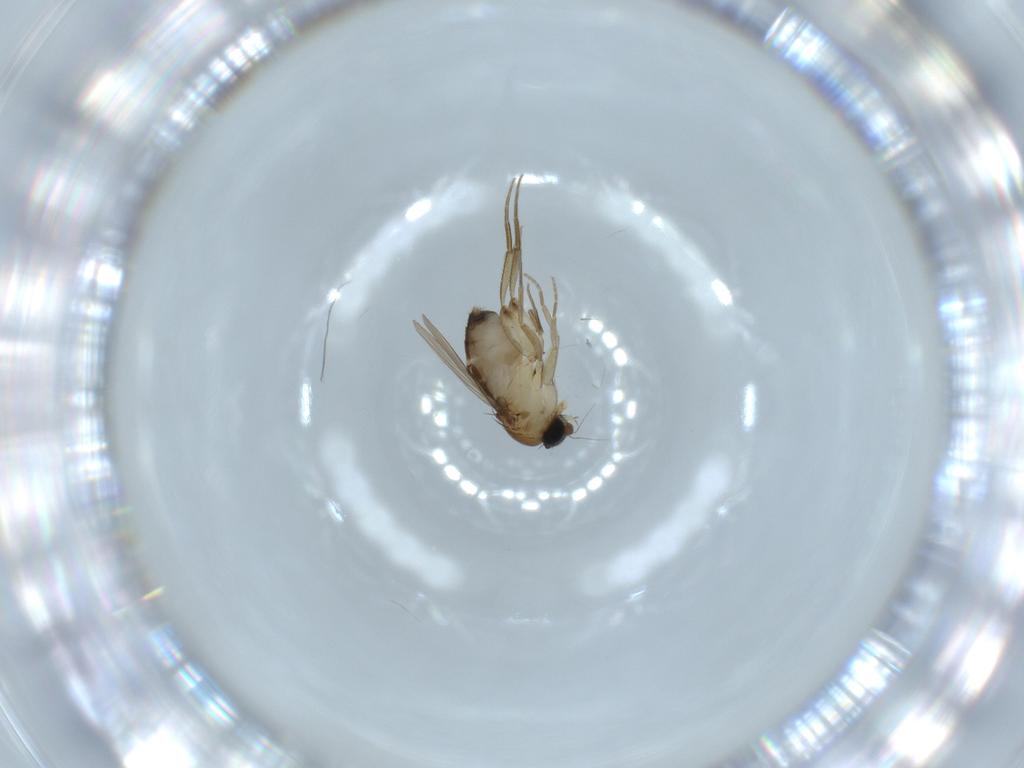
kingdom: Animalia
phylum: Arthropoda
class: Insecta
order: Diptera
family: Phoridae
